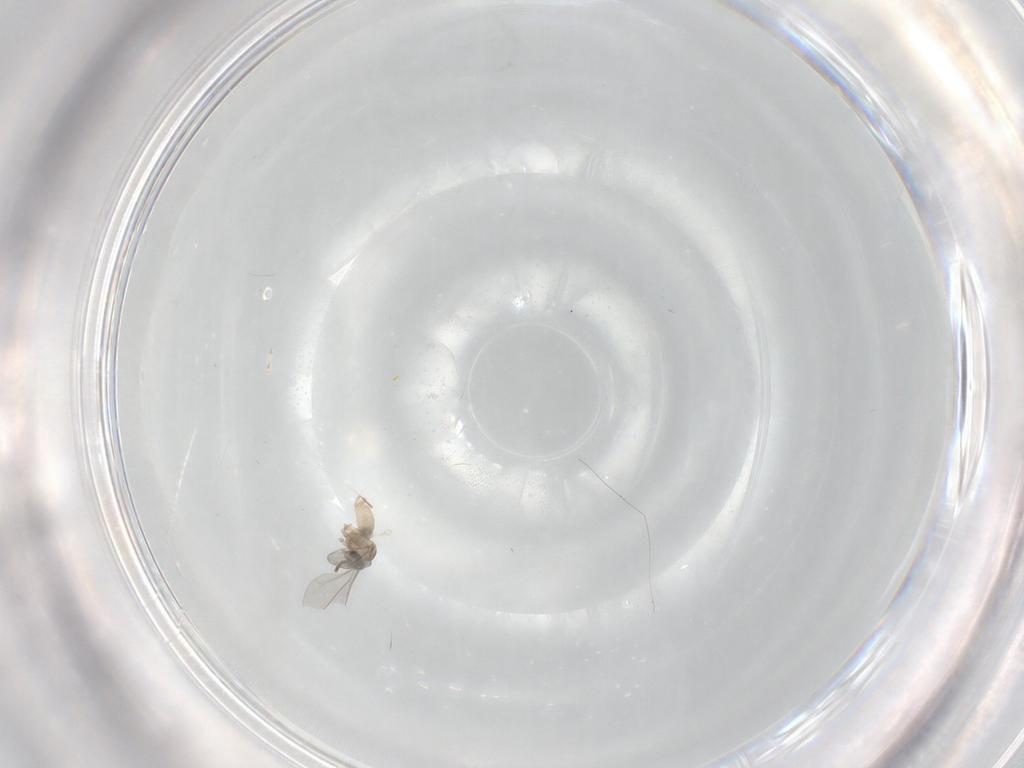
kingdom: Animalia
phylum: Arthropoda
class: Insecta
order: Diptera
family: Cecidomyiidae
